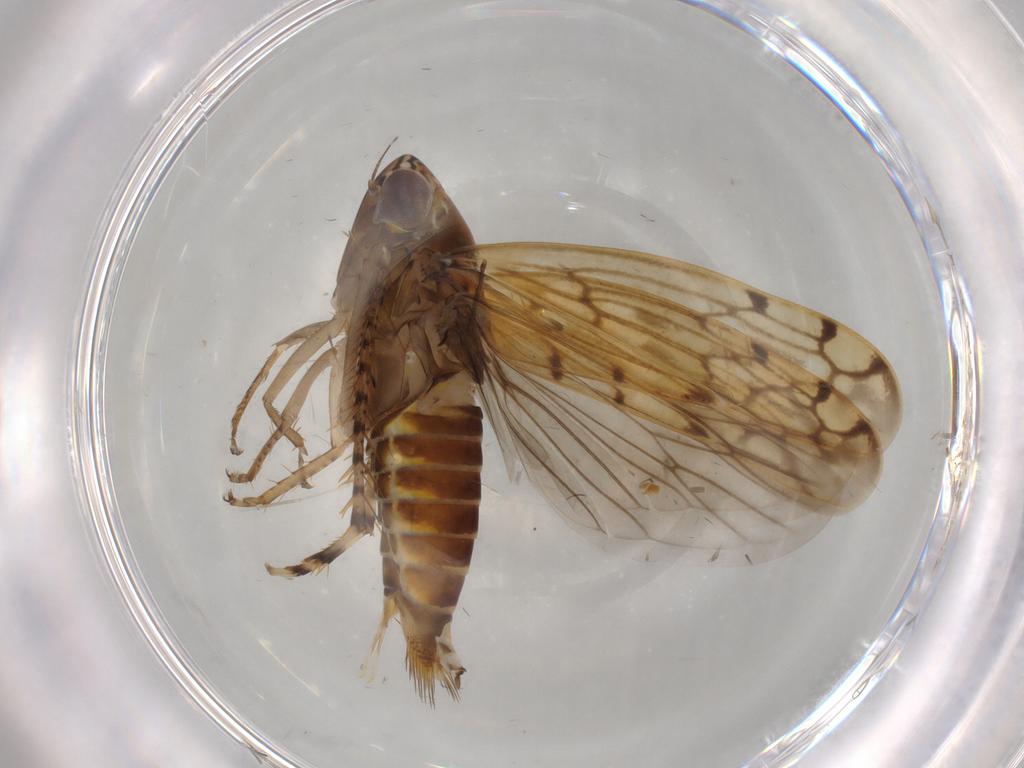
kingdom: Animalia
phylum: Arthropoda
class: Insecta
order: Hemiptera
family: Cicadellidae
